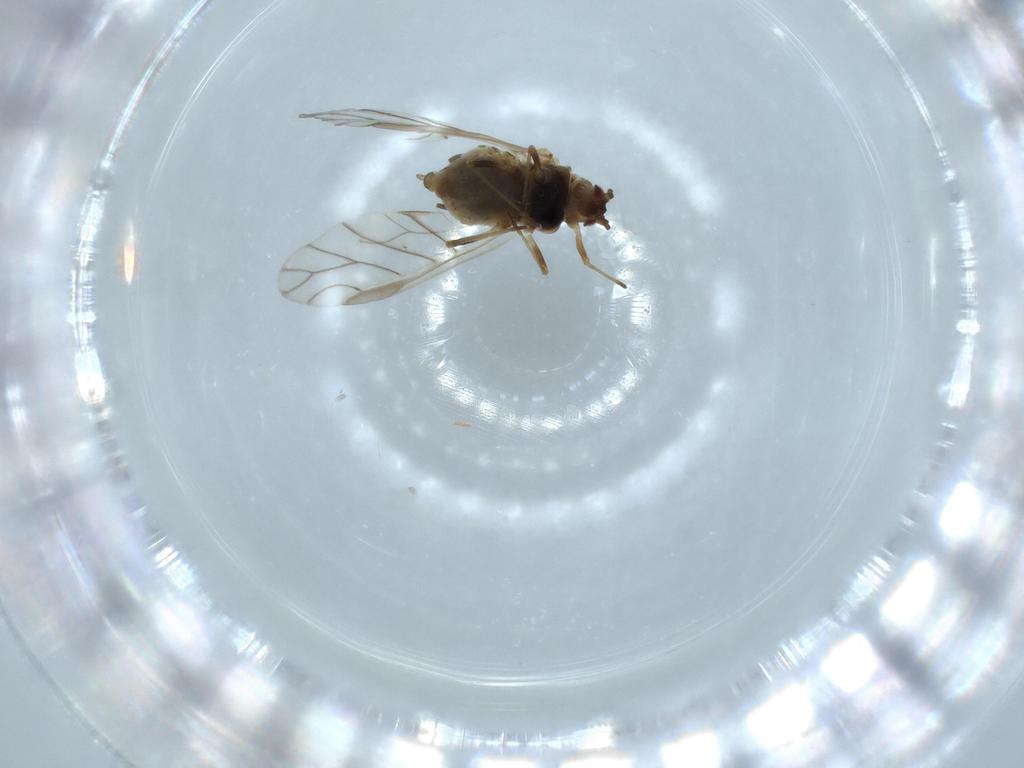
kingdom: Animalia
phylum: Arthropoda
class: Insecta
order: Hemiptera
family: Aphididae
